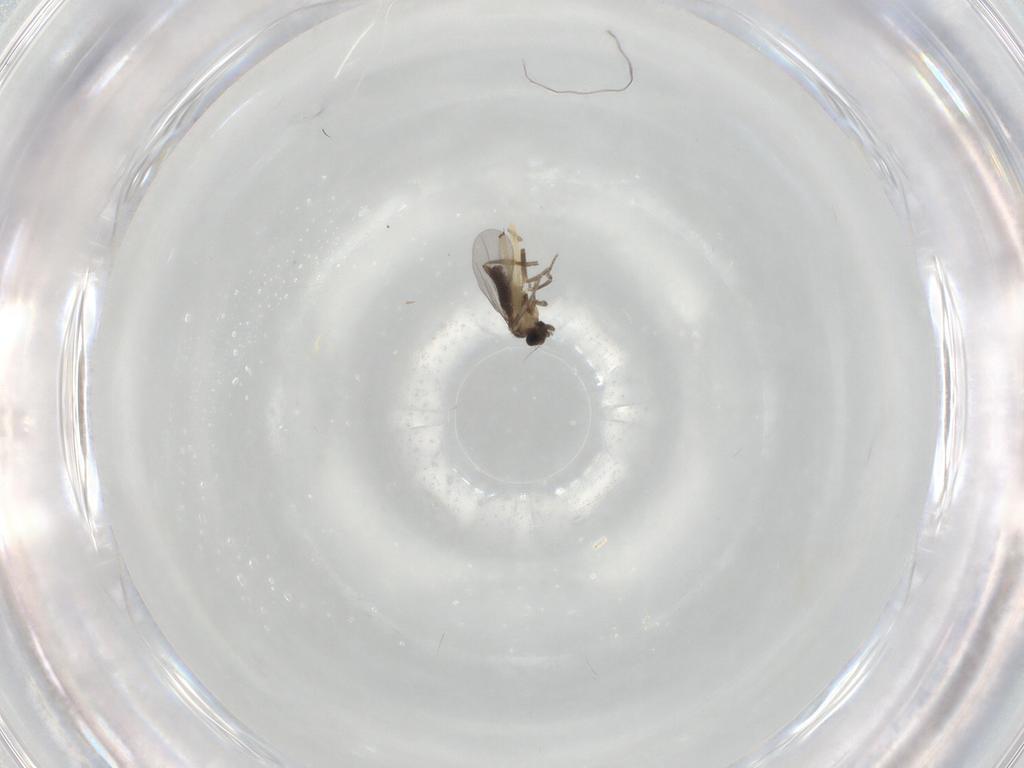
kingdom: Animalia
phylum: Arthropoda
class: Insecta
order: Diptera
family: Chironomidae
